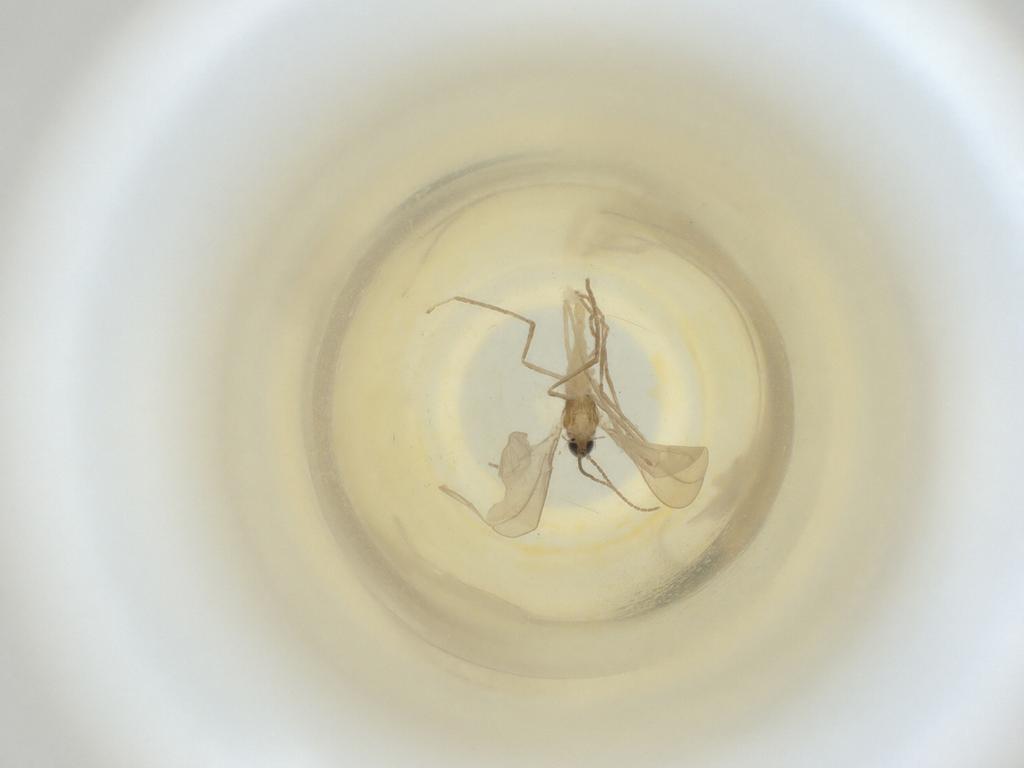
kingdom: Animalia
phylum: Arthropoda
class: Insecta
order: Diptera
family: Cecidomyiidae
